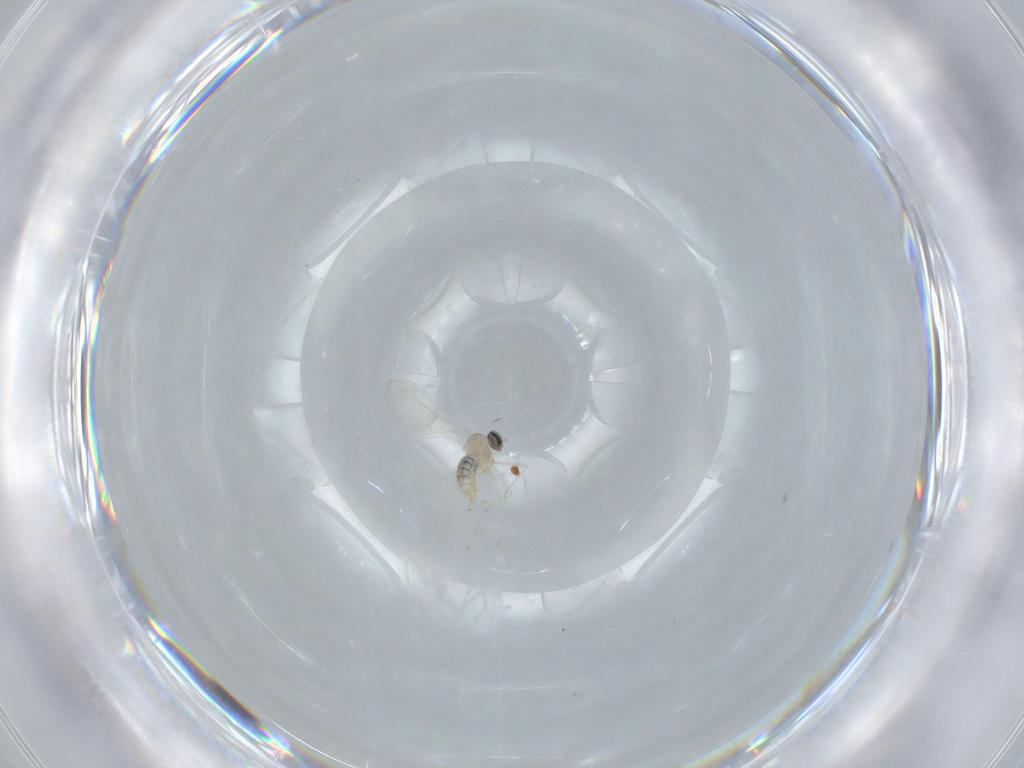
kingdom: Animalia
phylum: Arthropoda
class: Insecta
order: Diptera
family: Cecidomyiidae
